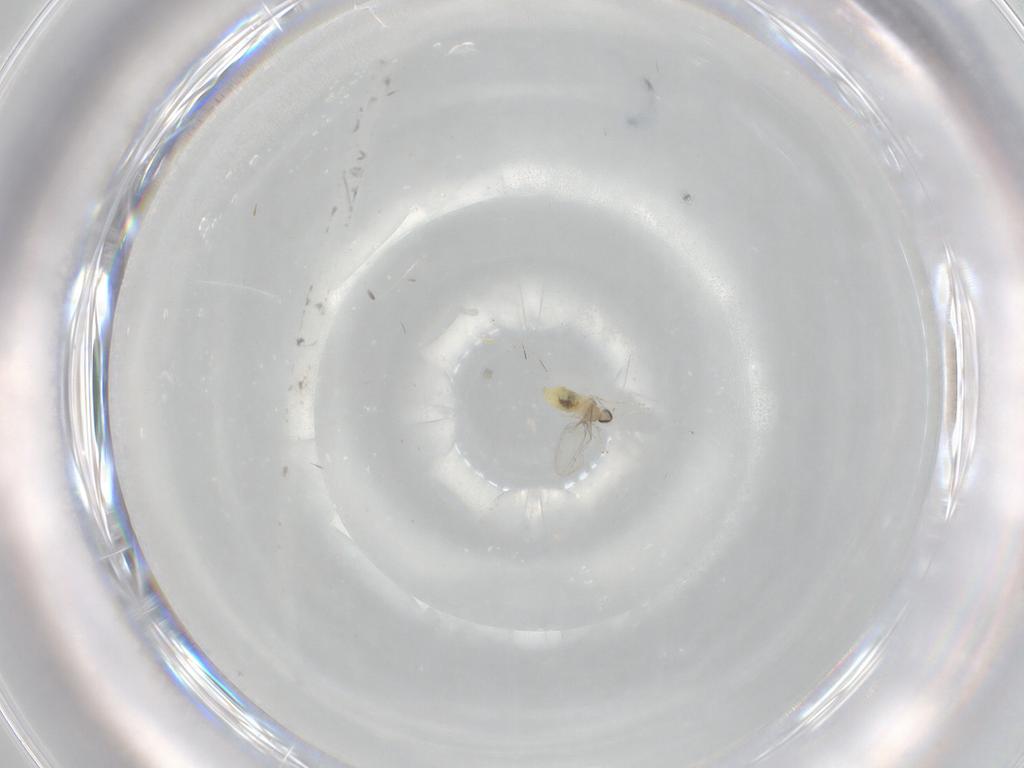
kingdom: Animalia
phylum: Arthropoda
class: Insecta
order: Diptera
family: Cecidomyiidae
